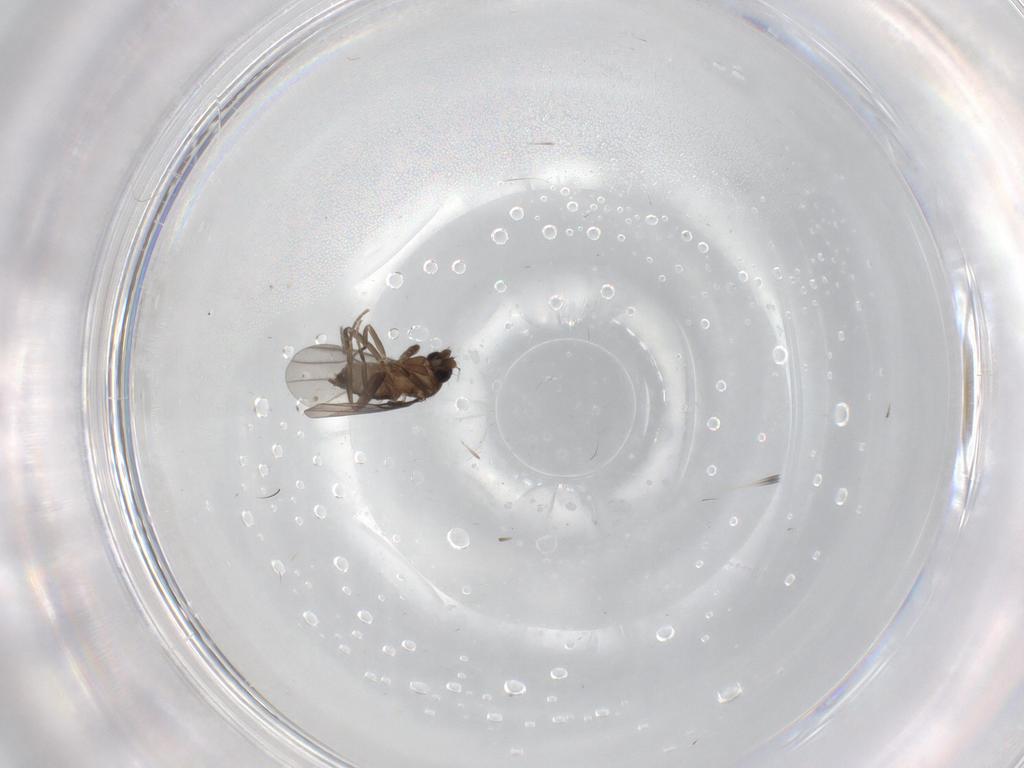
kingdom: Animalia
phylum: Arthropoda
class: Insecta
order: Diptera
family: Phoridae
